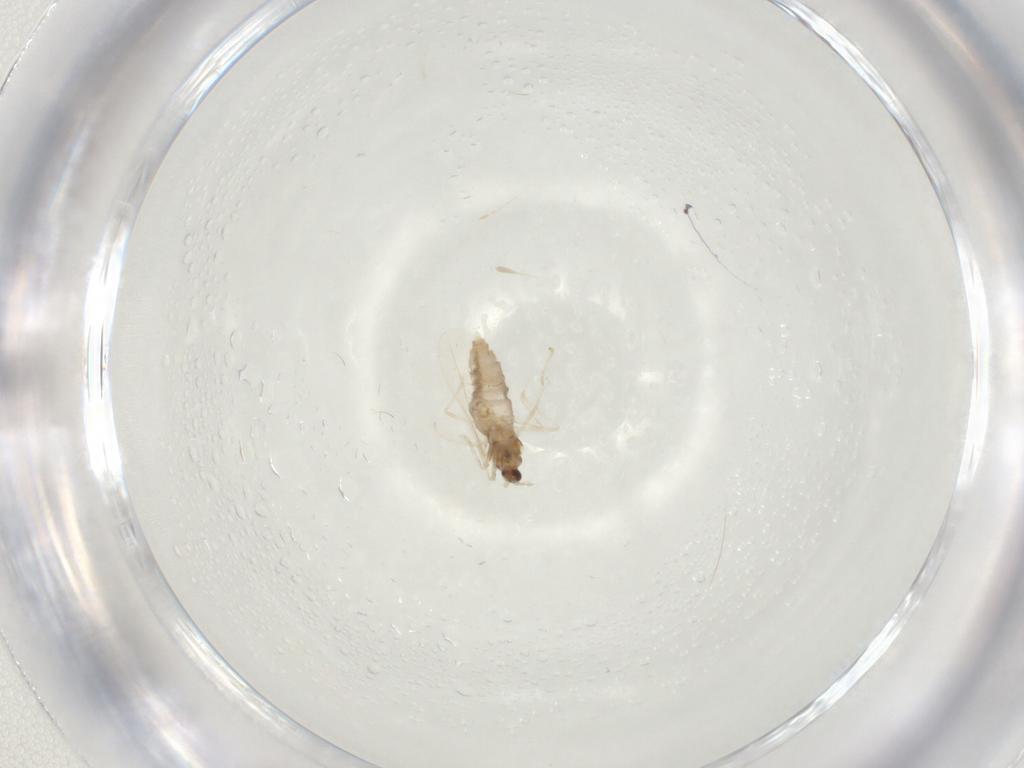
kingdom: Animalia
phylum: Arthropoda
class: Insecta
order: Diptera
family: Cecidomyiidae
